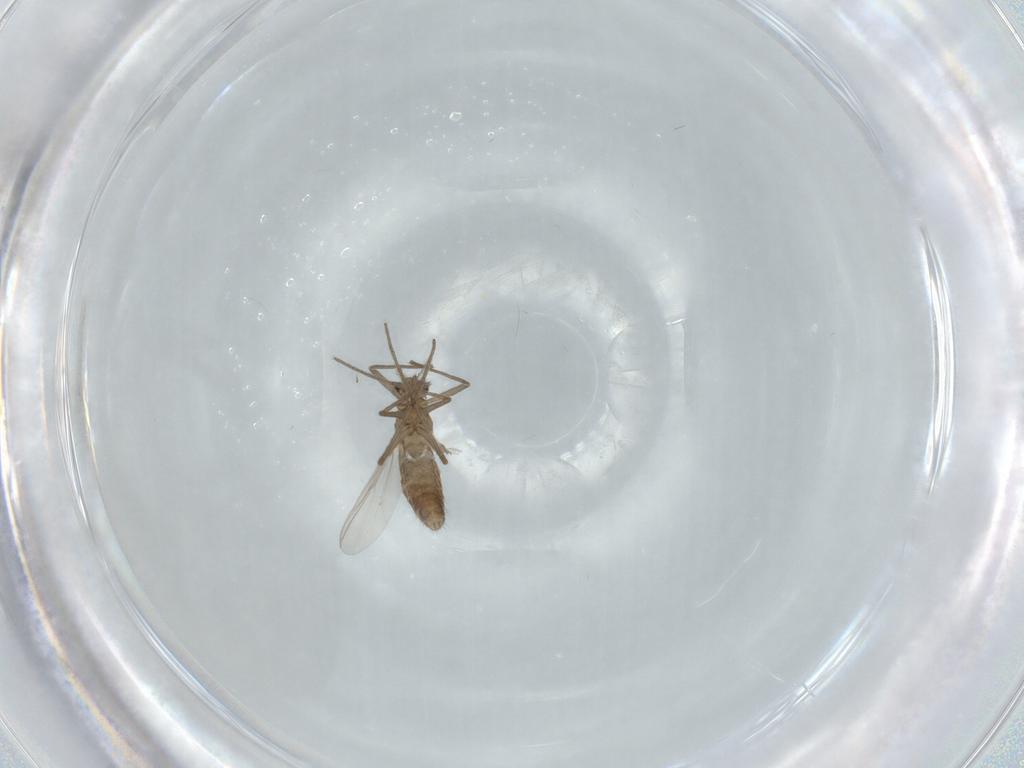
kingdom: Animalia
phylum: Arthropoda
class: Insecta
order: Diptera
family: Chironomidae
